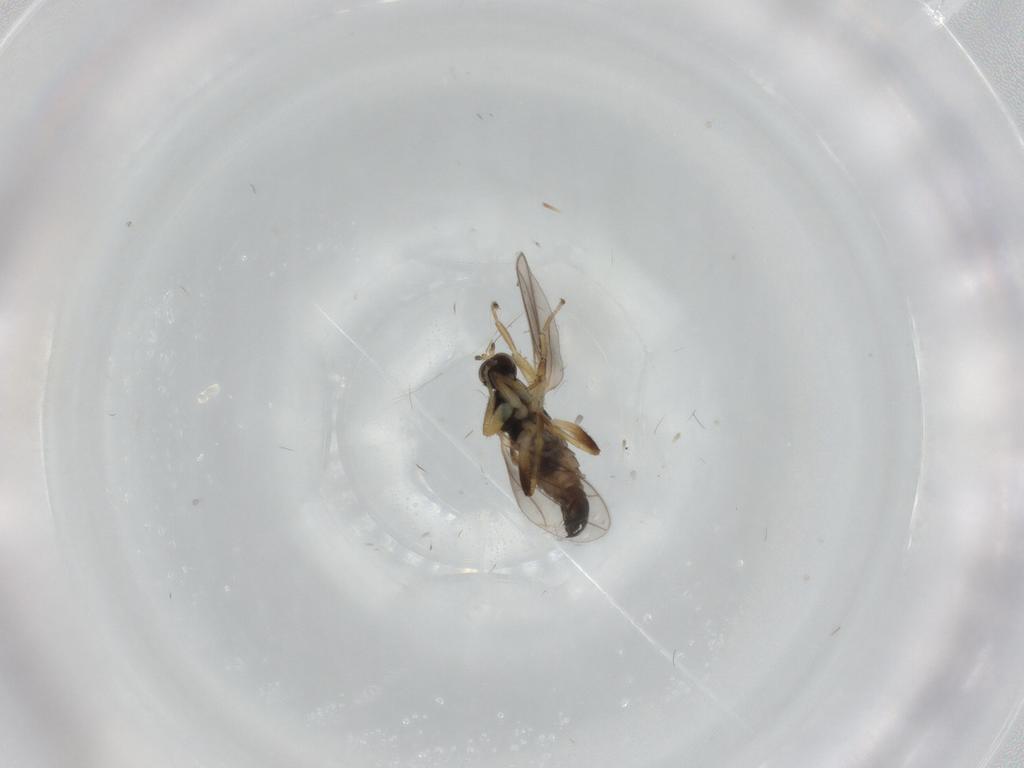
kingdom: Animalia
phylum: Arthropoda
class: Insecta
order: Diptera
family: Hybotidae
